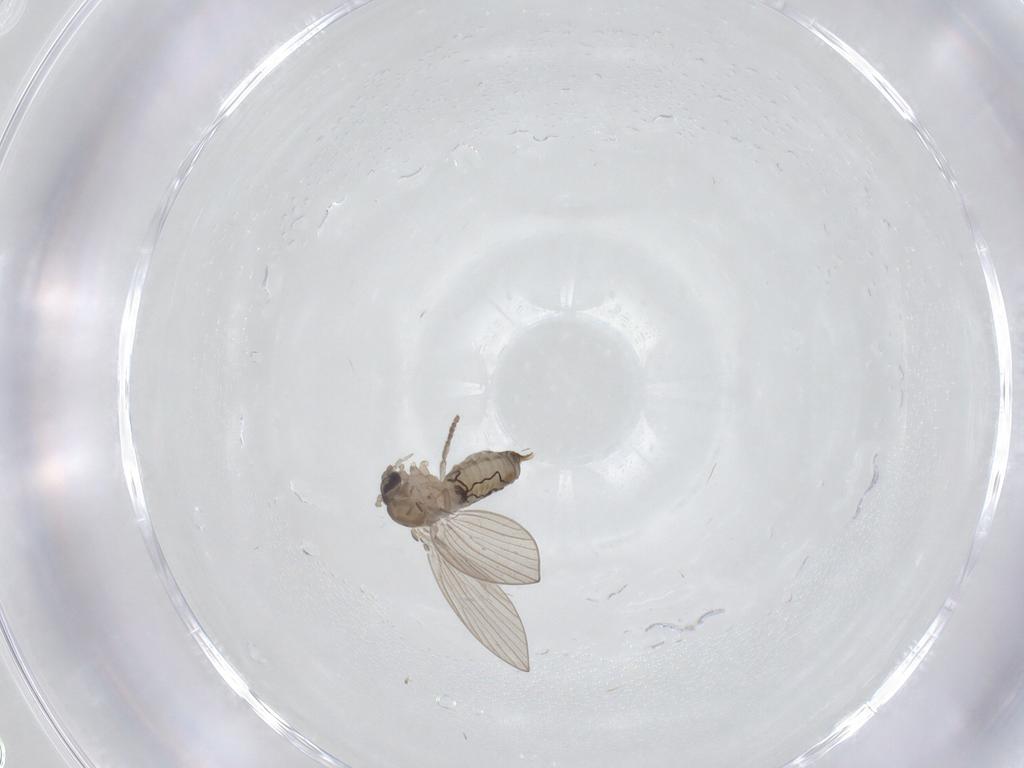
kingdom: Animalia
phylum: Arthropoda
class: Insecta
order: Diptera
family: Psychodidae
